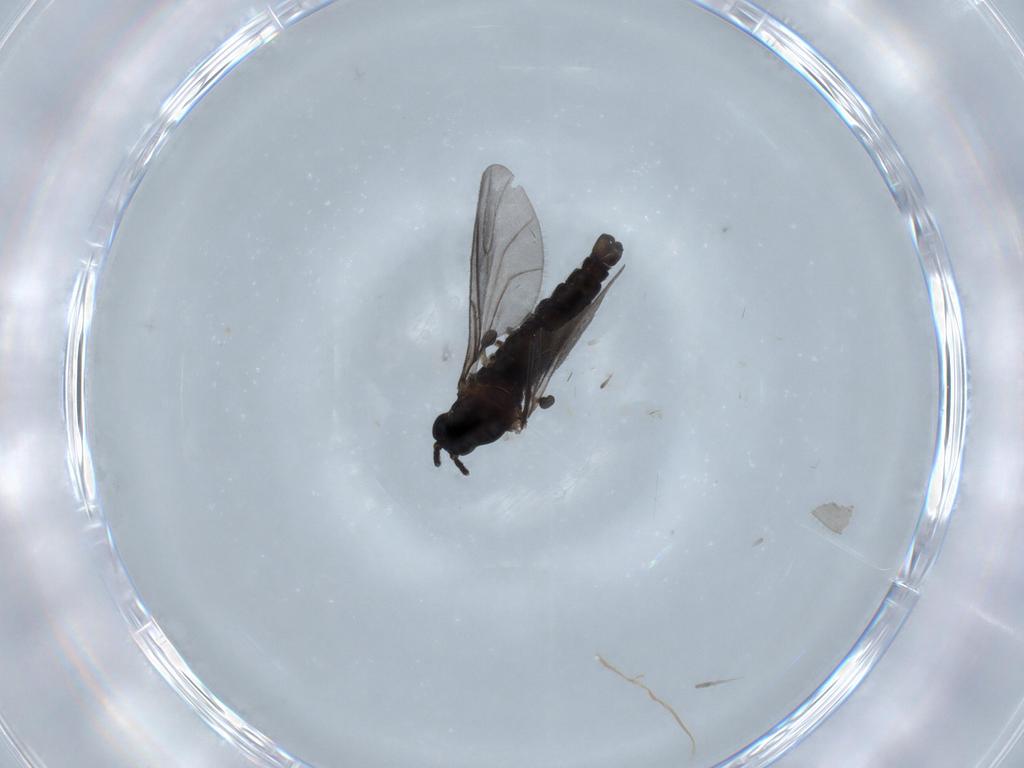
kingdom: Animalia
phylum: Arthropoda
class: Insecta
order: Diptera
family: Sciaridae
